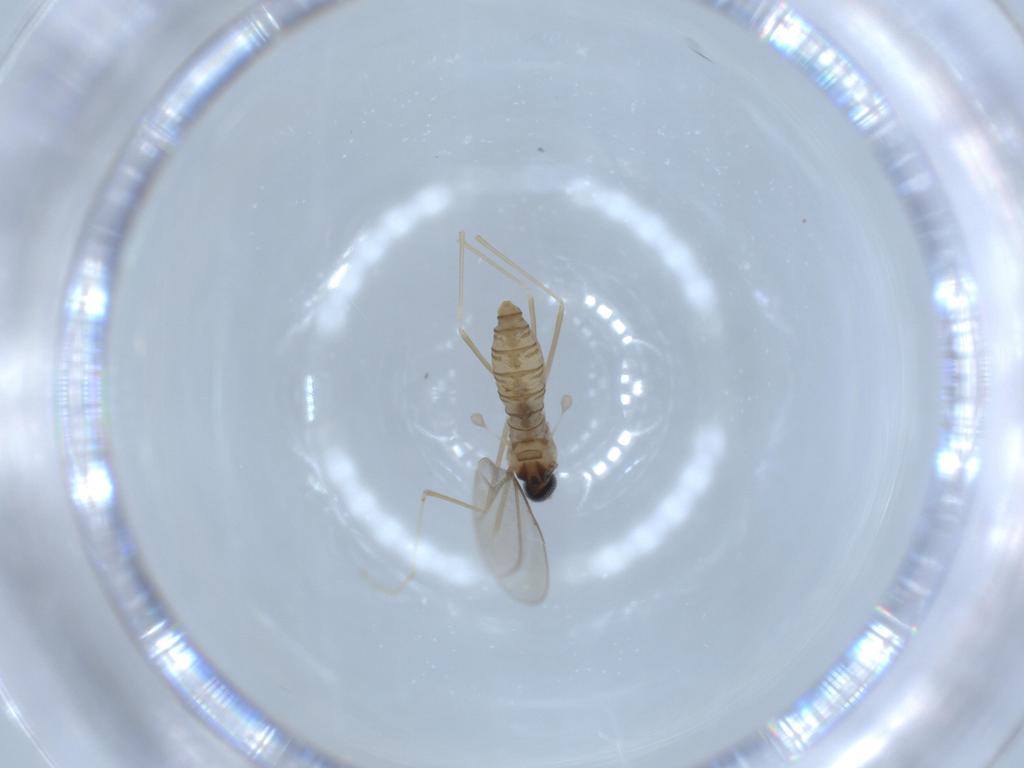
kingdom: Animalia
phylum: Arthropoda
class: Insecta
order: Diptera
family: Cecidomyiidae
